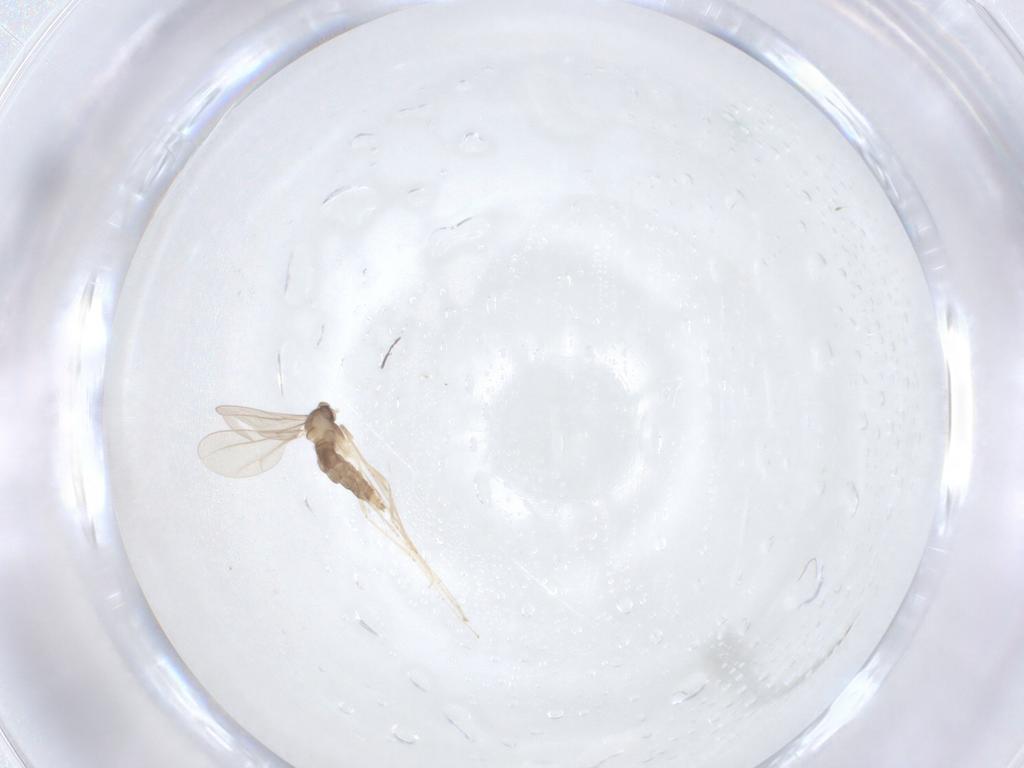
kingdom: Animalia
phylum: Arthropoda
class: Insecta
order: Diptera
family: Cecidomyiidae
